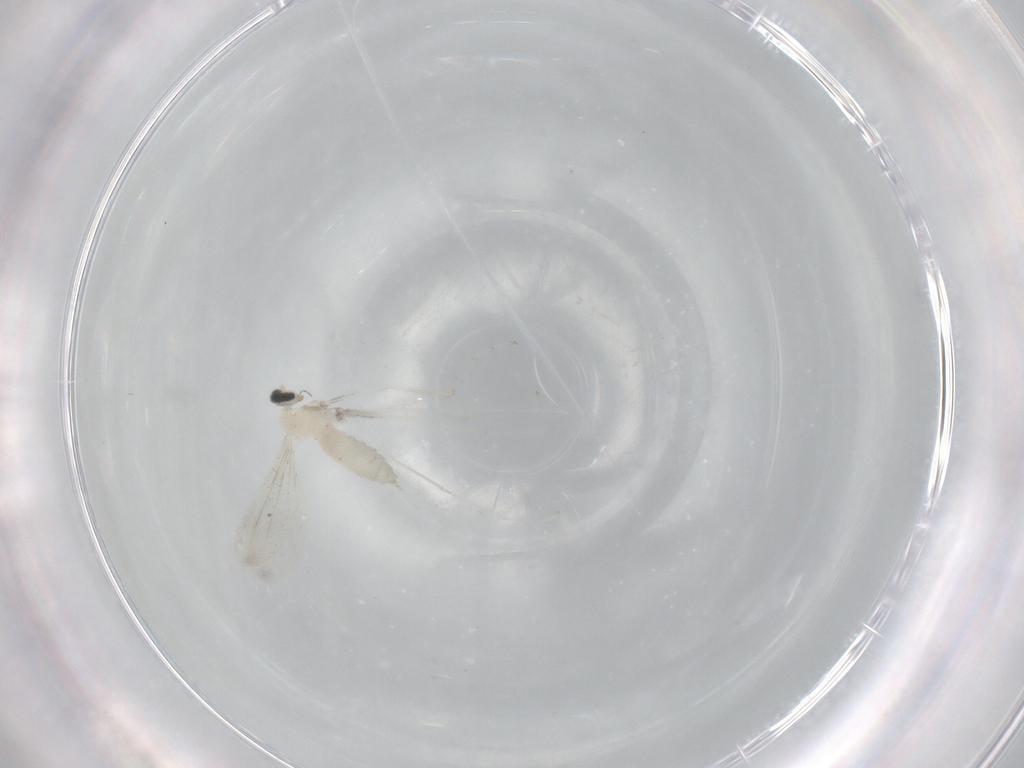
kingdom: Animalia
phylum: Arthropoda
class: Insecta
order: Diptera
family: Cecidomyiidae
